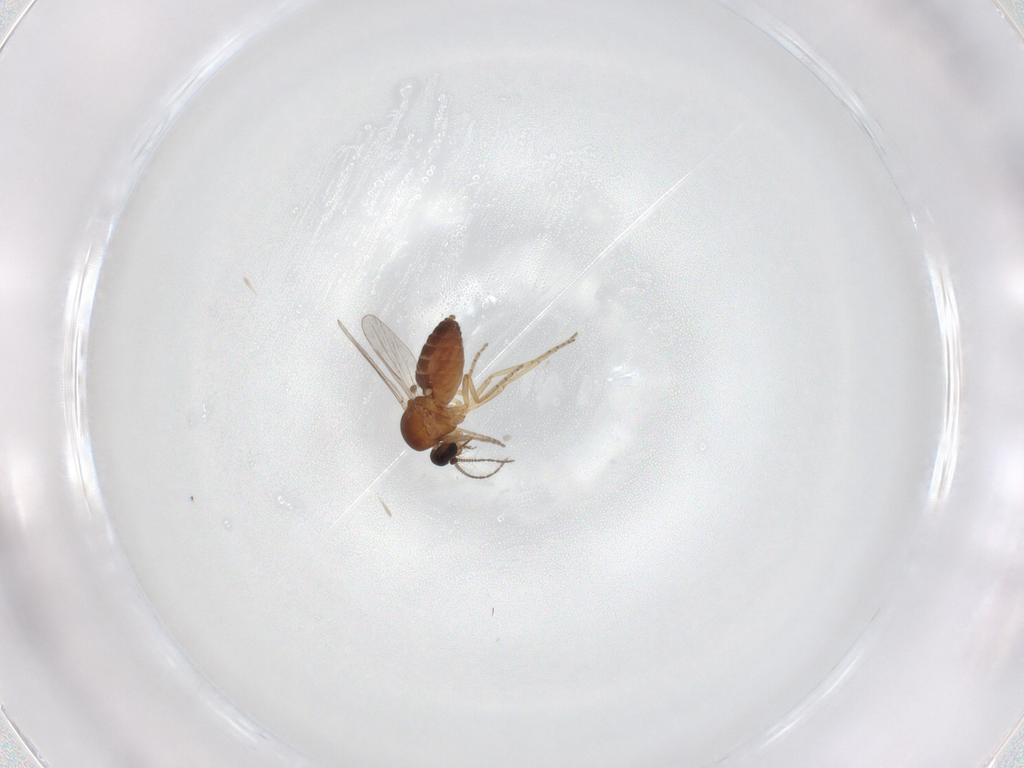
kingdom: Animalia
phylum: Arthropoda
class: Insecta
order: Diptera
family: Ceratopogonidae
